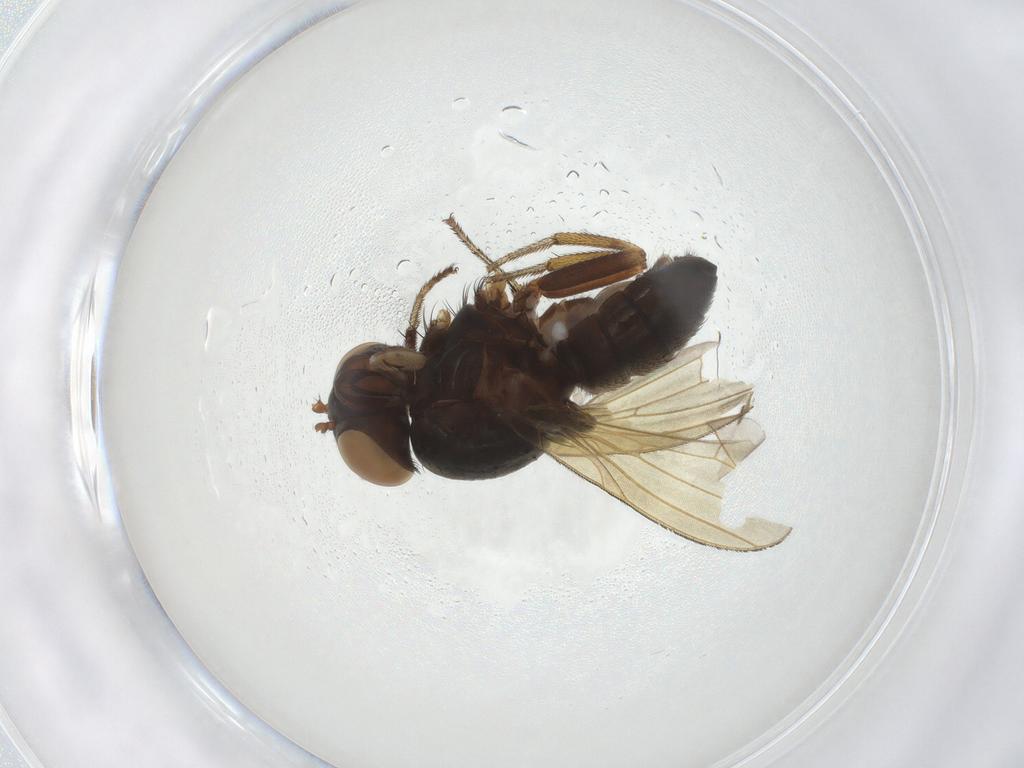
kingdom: Animalia
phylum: Arthropoda
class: Insecta
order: Diptera
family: Lauxaniidae
